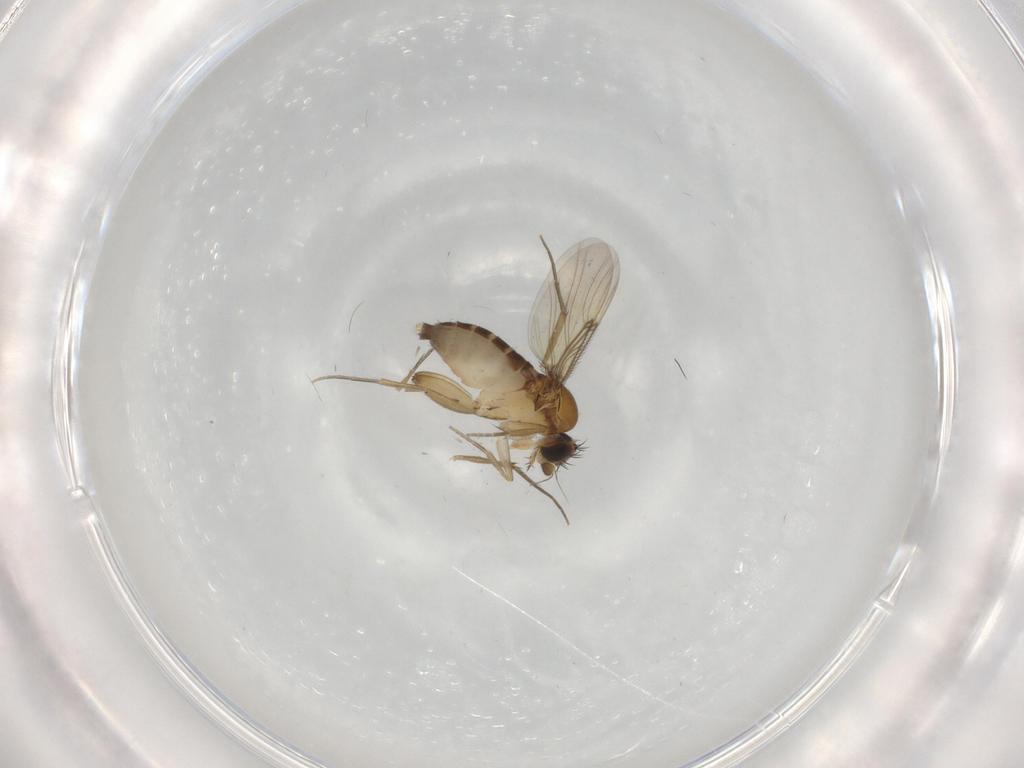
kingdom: Animalia
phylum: Arthropoda
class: Insecta
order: Diptera
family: Phoridae
